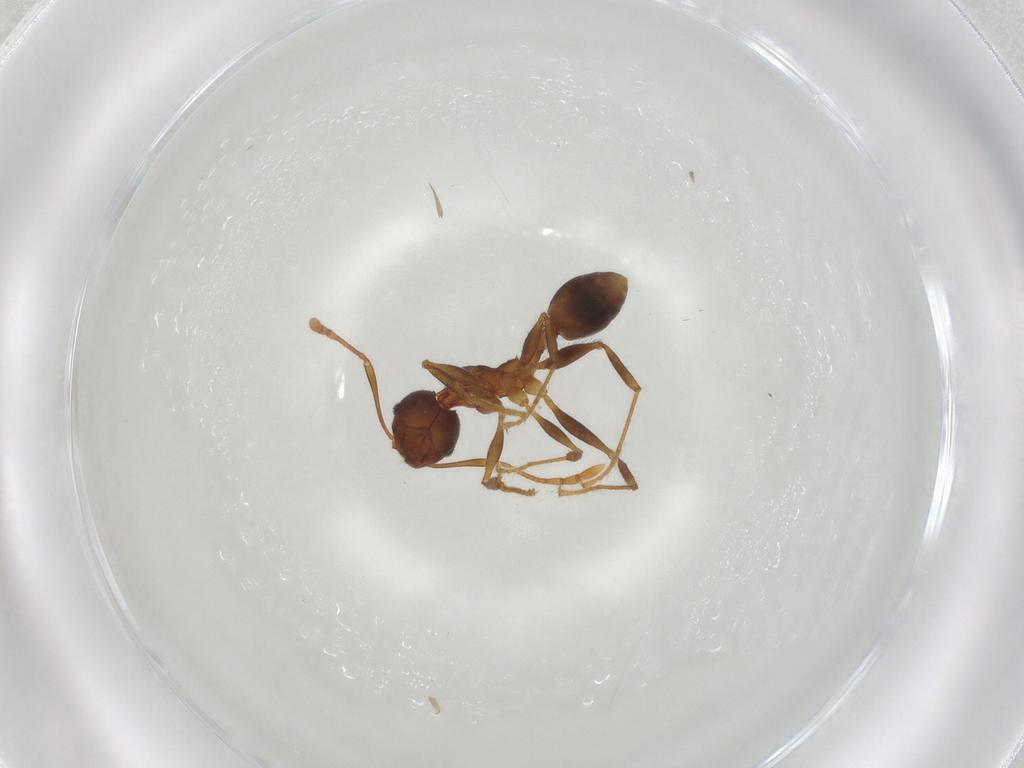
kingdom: Animalia
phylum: Arthropoda
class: Insecta
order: Hymenoptera
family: Formicidae
